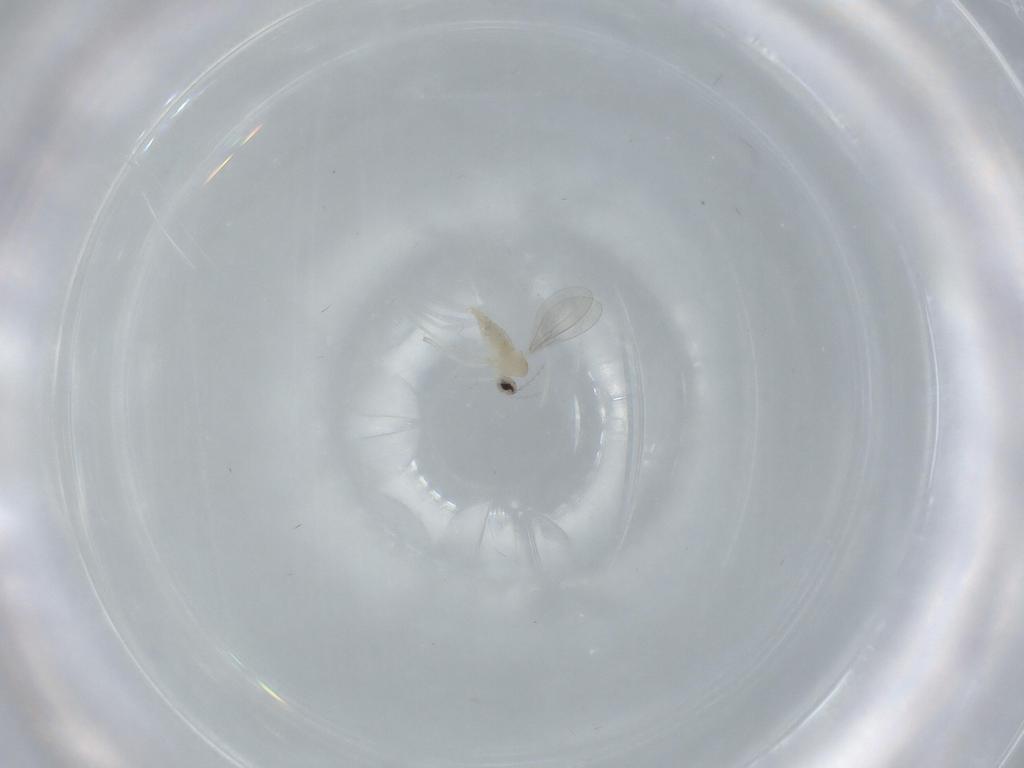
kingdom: Animalia
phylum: Arthropoda
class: Insecta
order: Diptera
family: Cecidomyiidae
